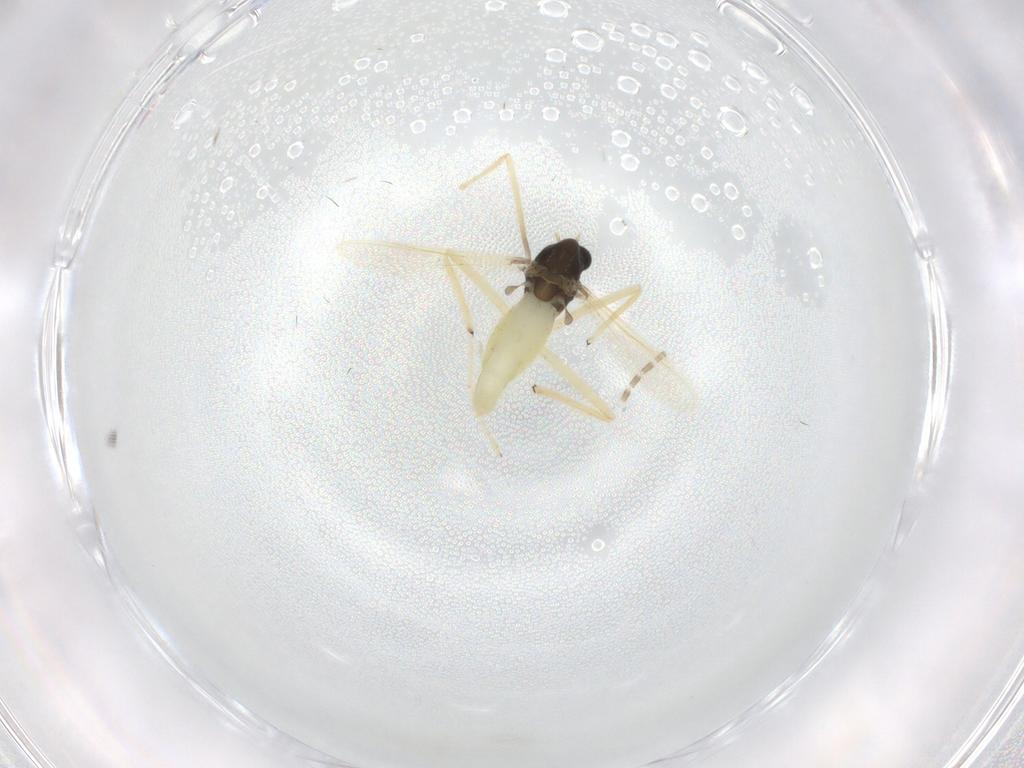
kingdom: Animalia
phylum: Arthropoda
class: Insecta
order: Diptera
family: Chironomidae
